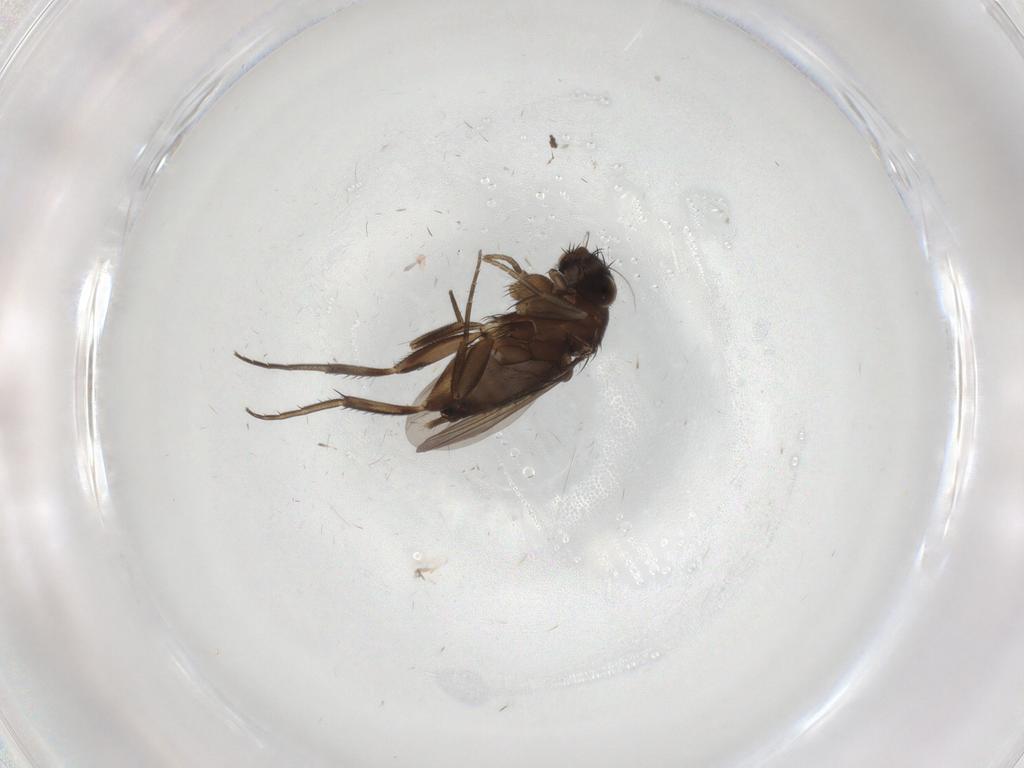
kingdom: Animalia
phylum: Arthropoda
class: Insecta
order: Diptera
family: Phoridae
